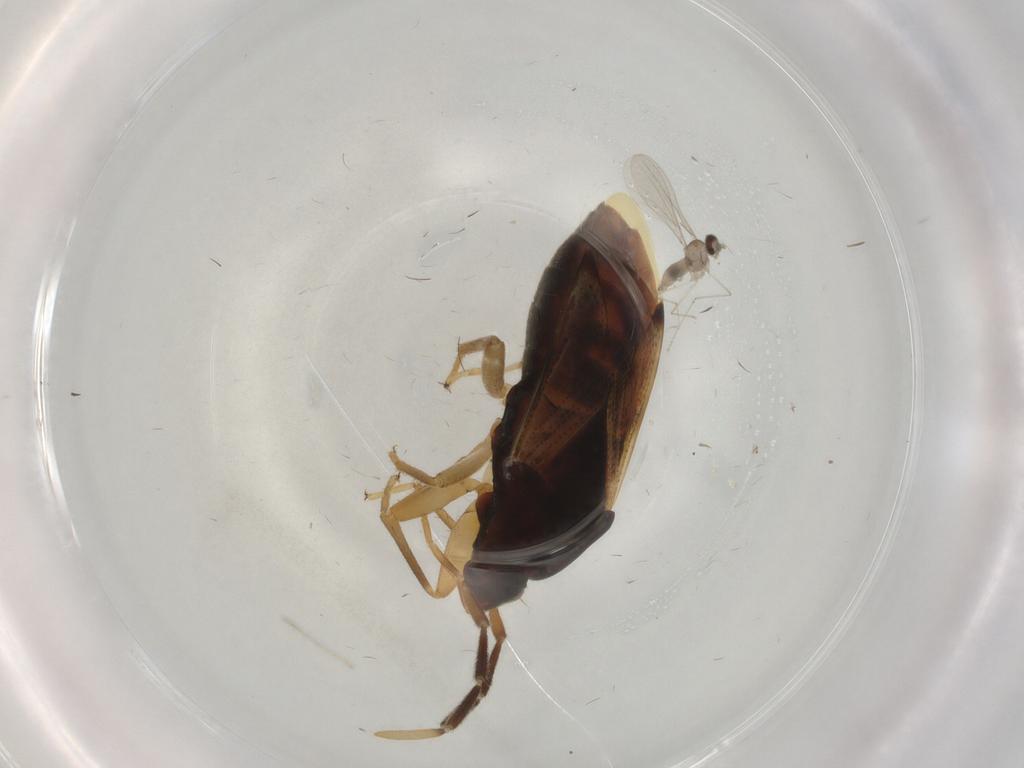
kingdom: Animalia
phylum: Arthropoda
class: Insecta
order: Hemiptera
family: Rhyparochromidae
